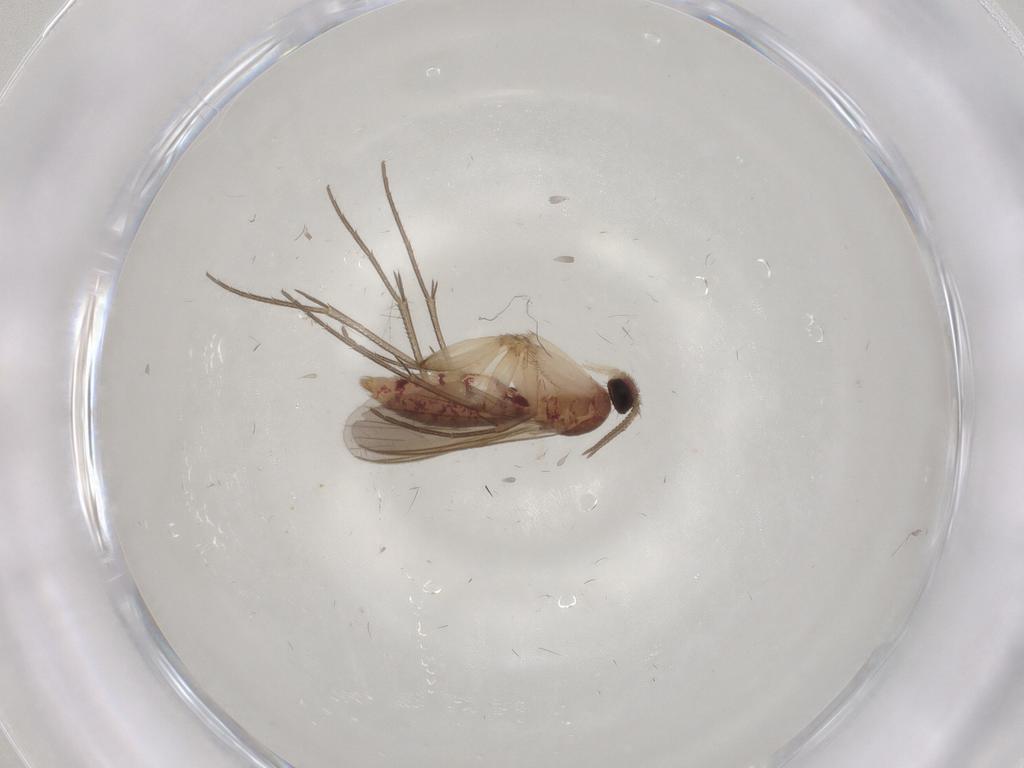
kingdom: Animalia
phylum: Arthropoda
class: Insecta
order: Diptera
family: Mycetophilidae
